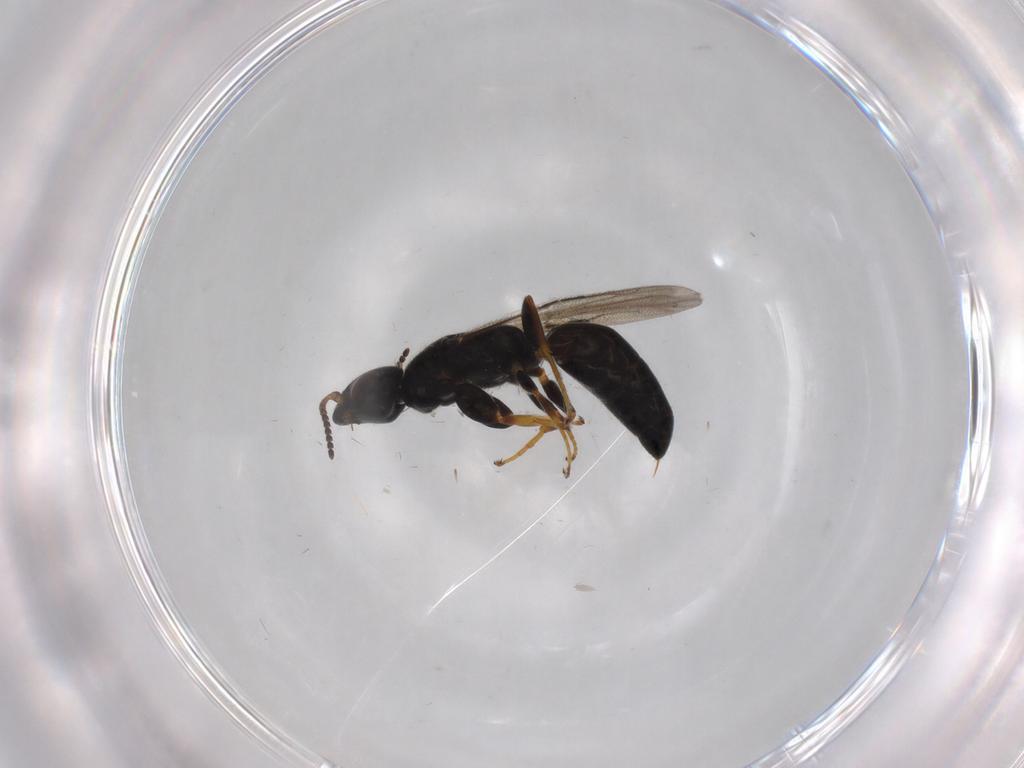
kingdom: Animalia
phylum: Arthropoda
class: Insecta
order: Hymenoptera
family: Bethylidae
